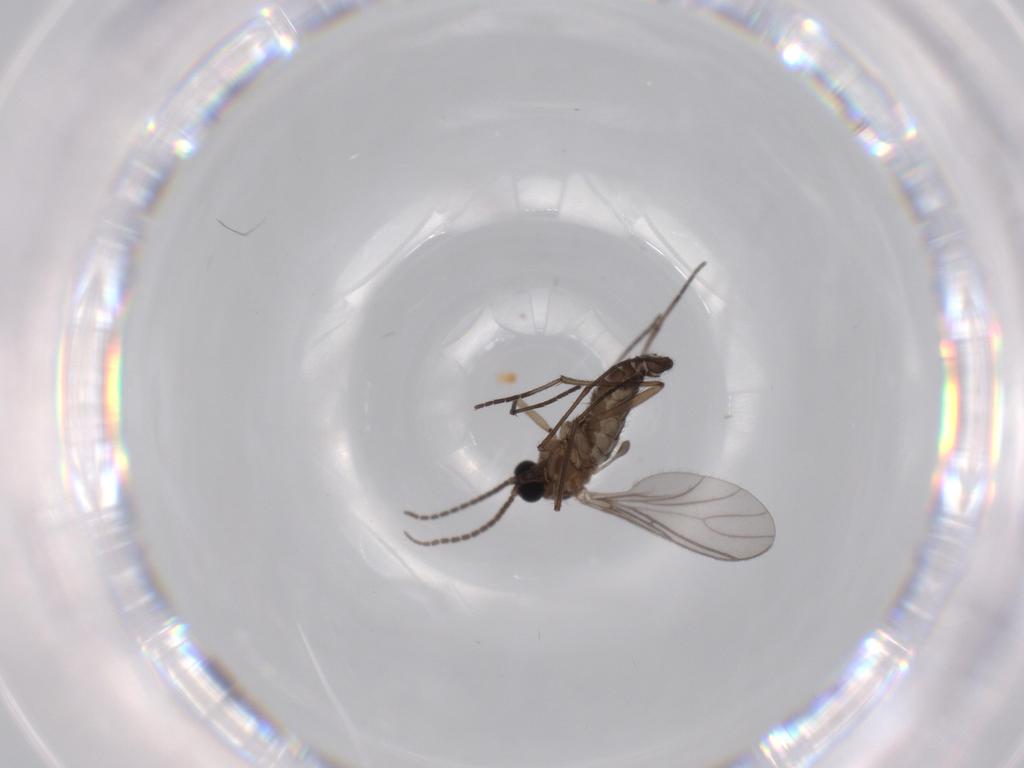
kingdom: Animalia
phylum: Arthropoda
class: Insecta
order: Diptera
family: Sciaridae
